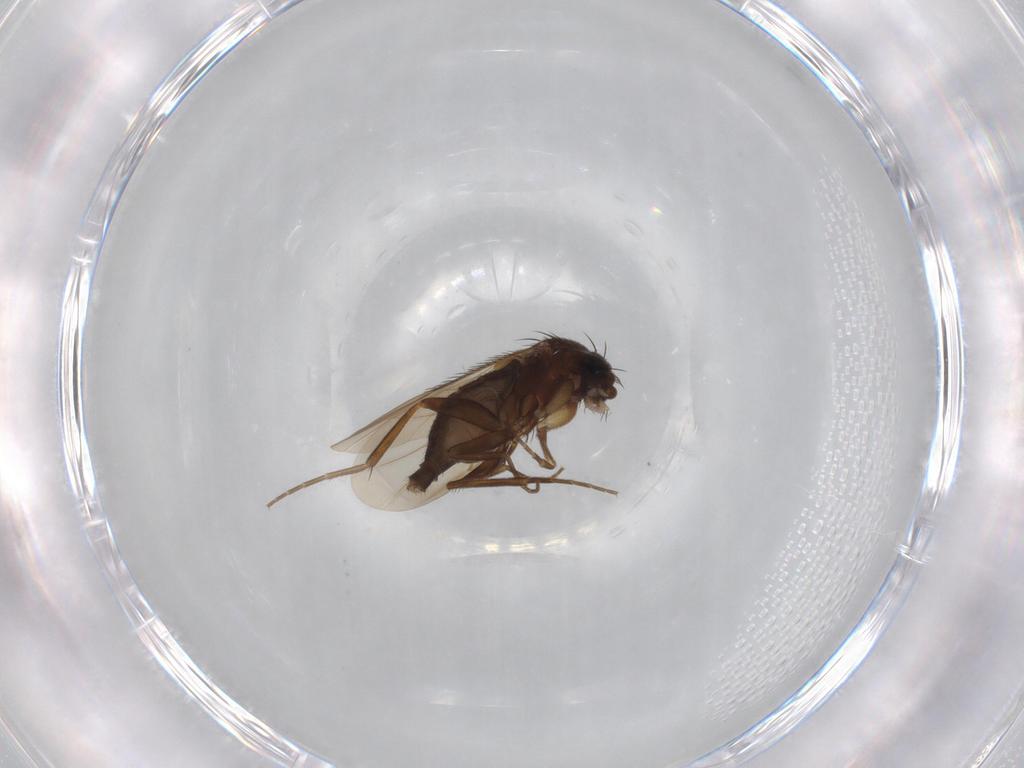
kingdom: Animalia
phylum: Arthropoda
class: Insecta
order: Diptera
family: Phoridae
